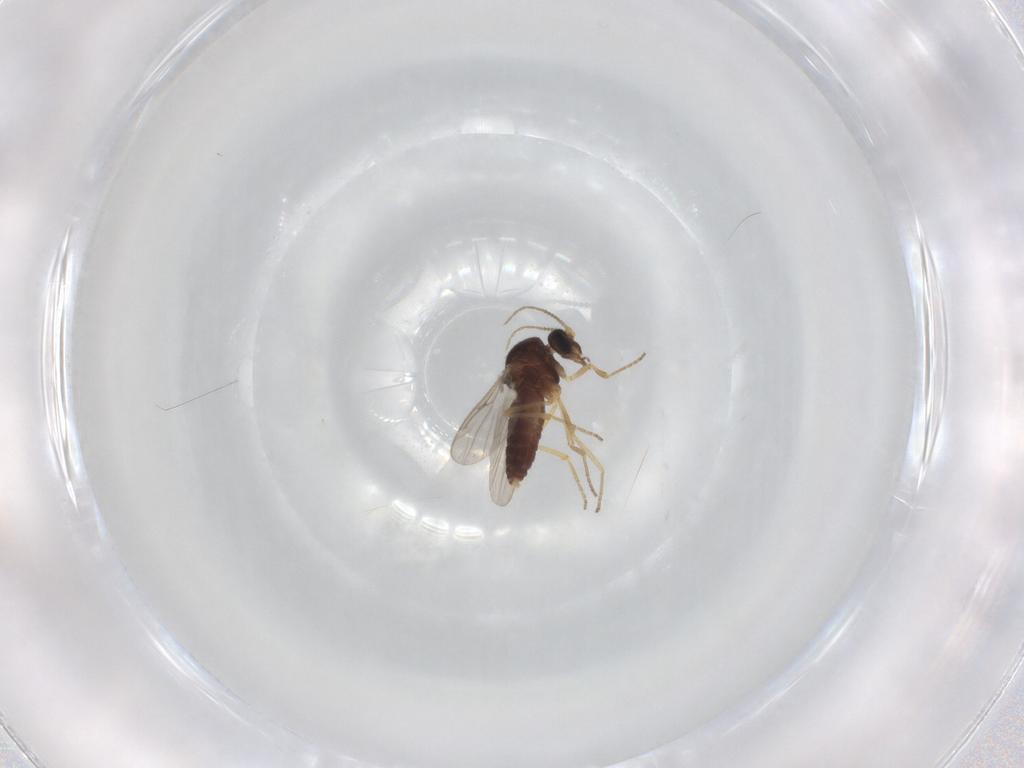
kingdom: Animalia
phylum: Arthropoda
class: Insecta
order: Diptera
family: Ceratopogonidae
